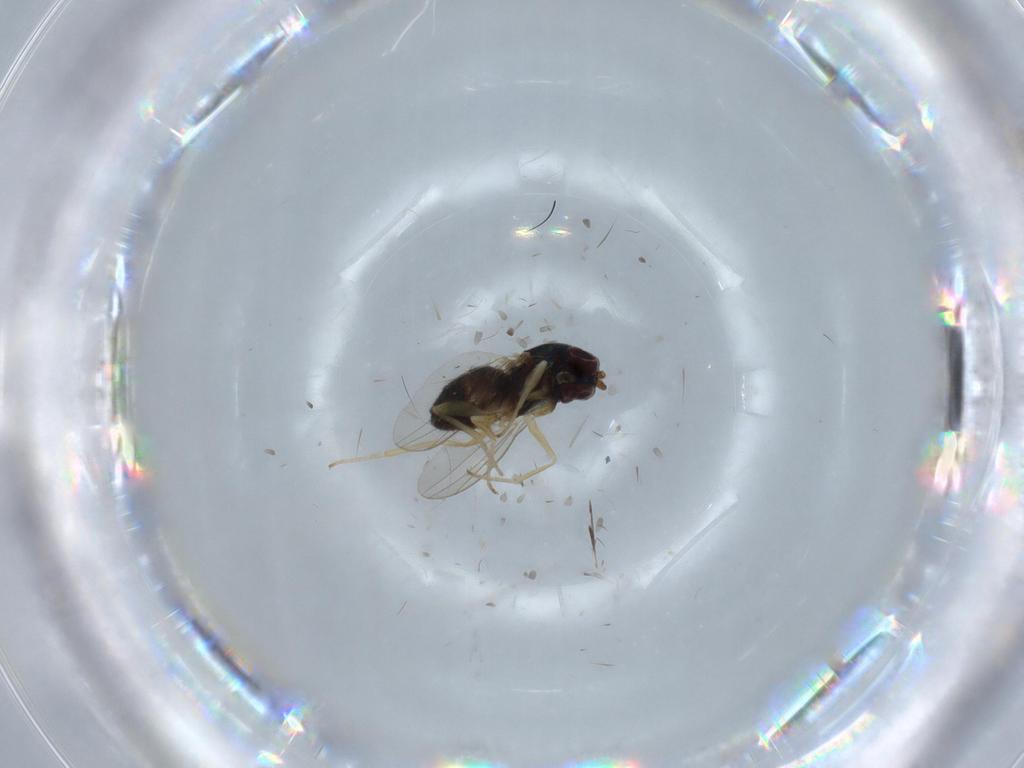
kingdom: Animalia
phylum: Arthropoda
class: Insecta
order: Diptera
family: Dolichopodidae
